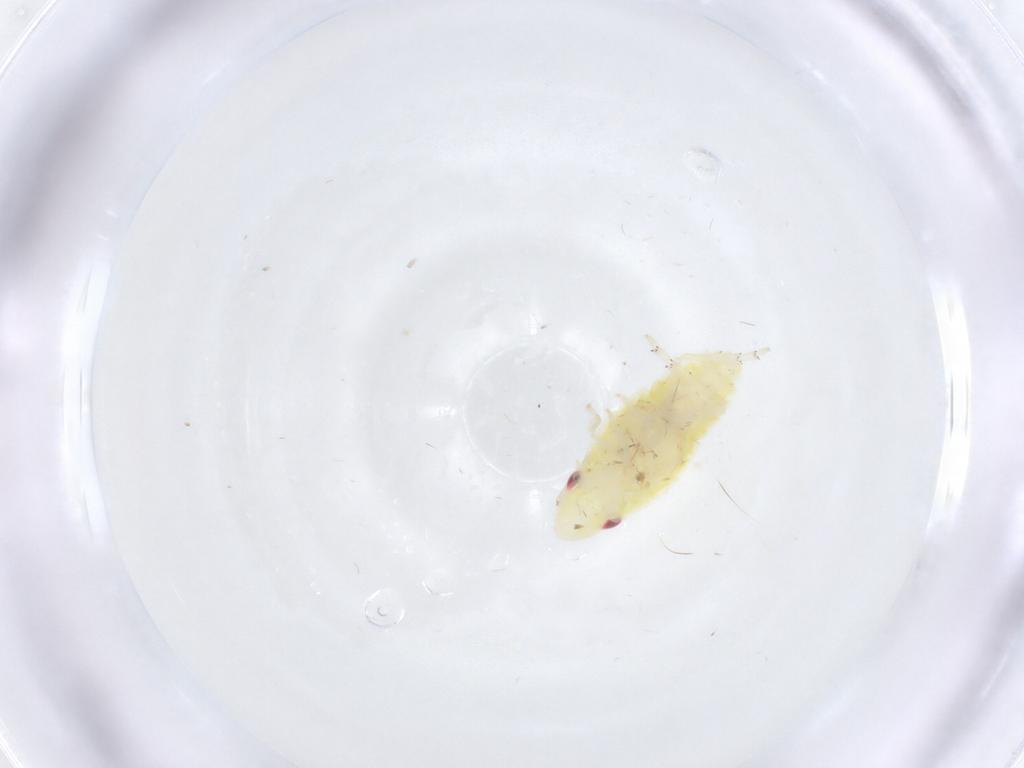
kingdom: Animalia
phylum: Arthropoda
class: Insecta
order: Hemiptera
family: Tropiduchidae
